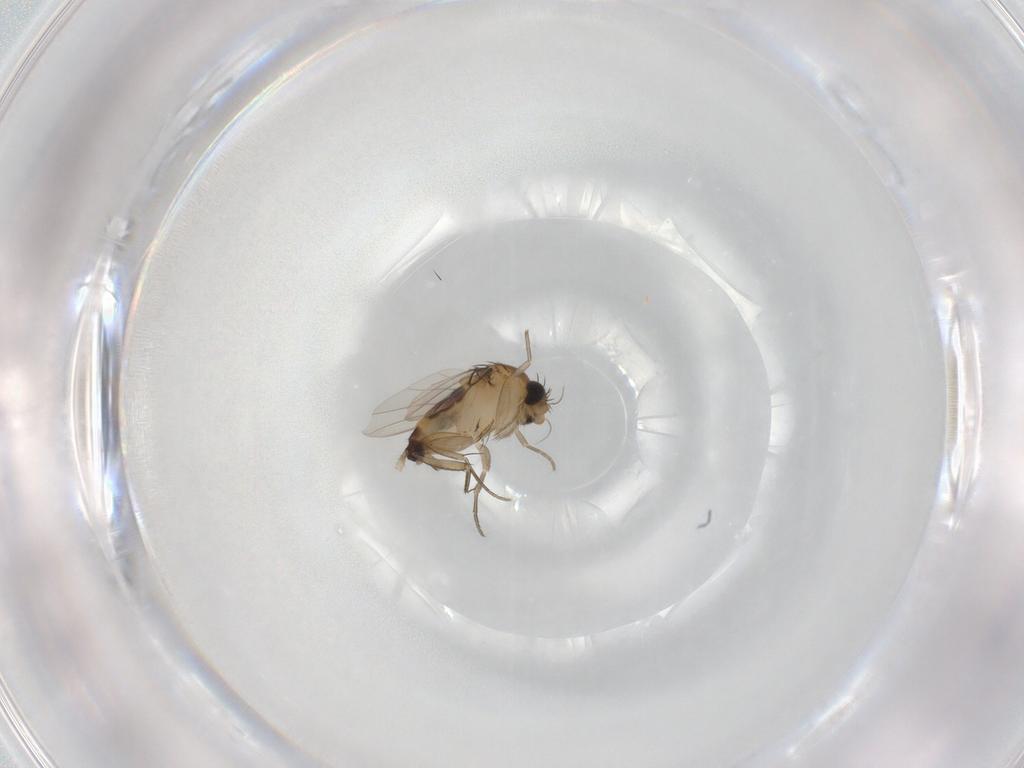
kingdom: Animalia
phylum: Arthropoda
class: Insecta
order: Diptera
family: Phoridae
